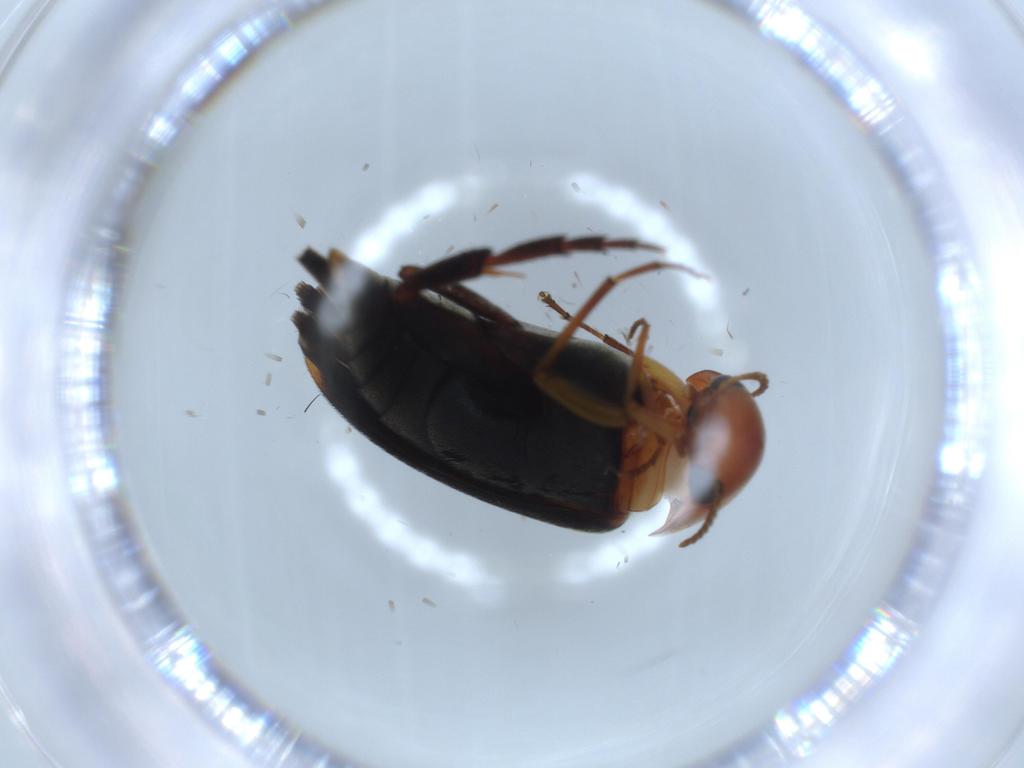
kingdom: Animalia
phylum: Arthropoda
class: Insecta
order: Coleoptera
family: Mordellidae
